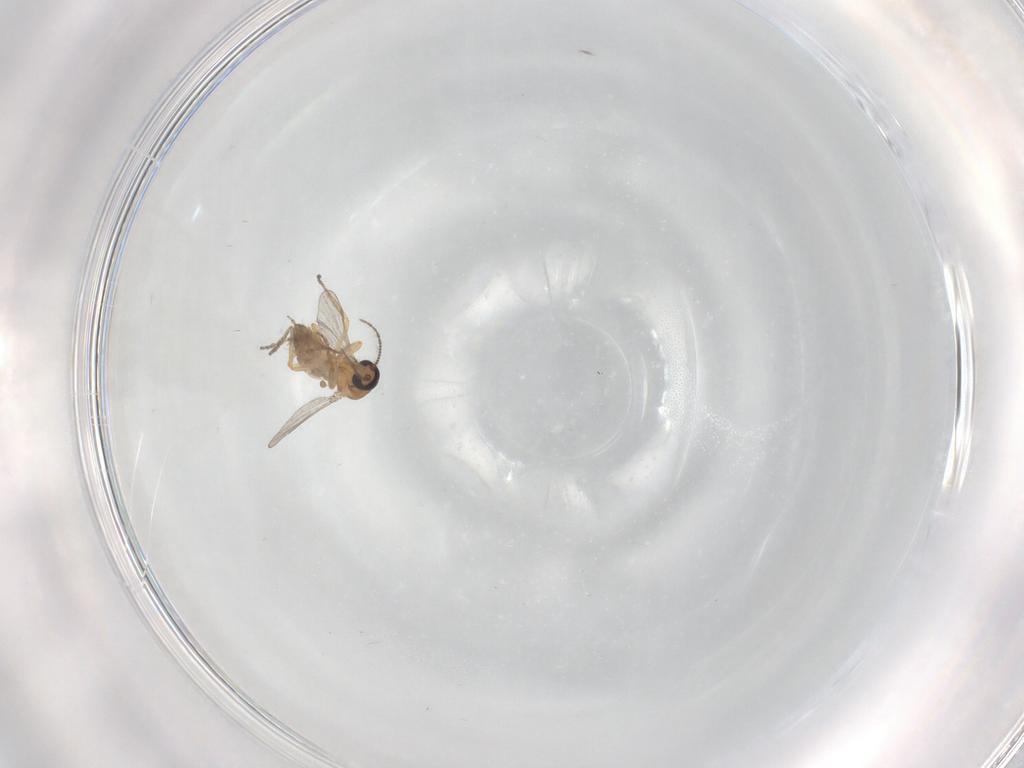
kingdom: Animalia
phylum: Arthropoda
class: Insecta
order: Diptera
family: Ceratopogonidae
